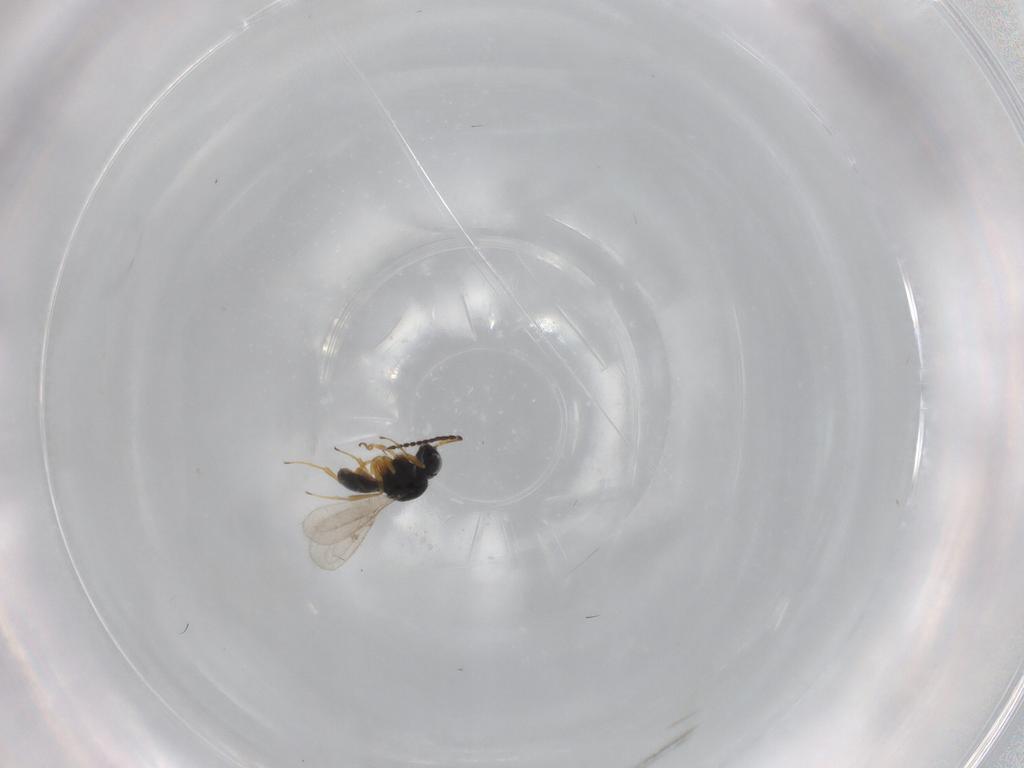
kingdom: Animalia
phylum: Arthropoda
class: Insecta
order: Hymenoptera
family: Scelionidae
